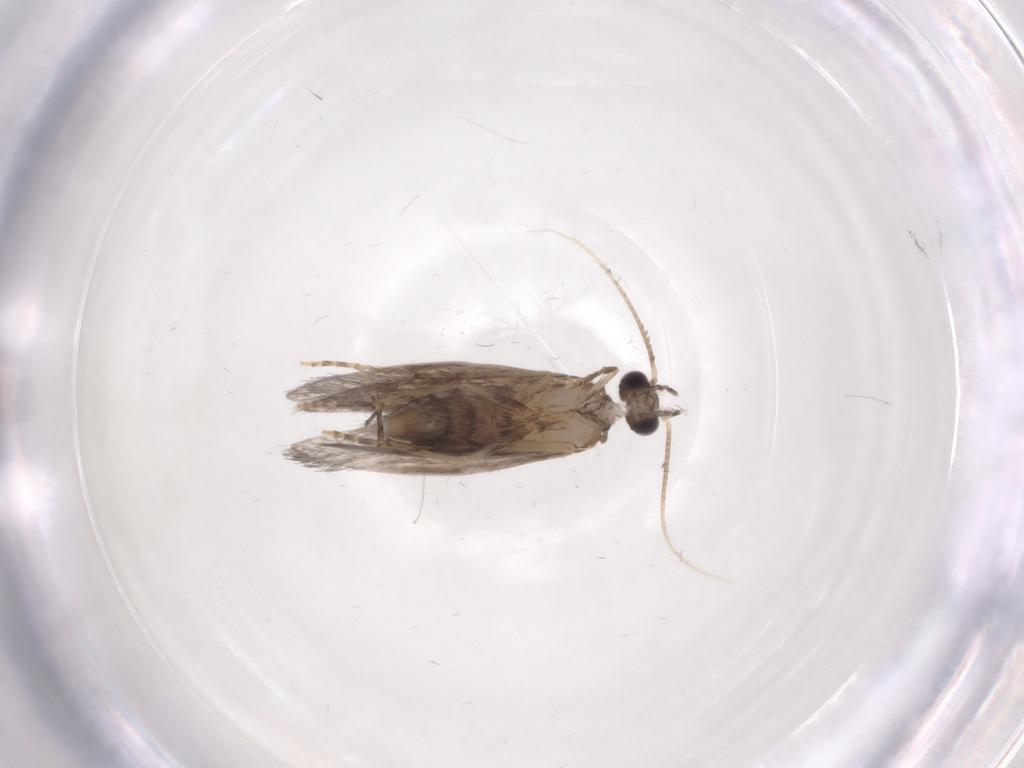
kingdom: Animalia
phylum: Arthropoda
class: Insecta
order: Trichoptera
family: Hydroptilidae
